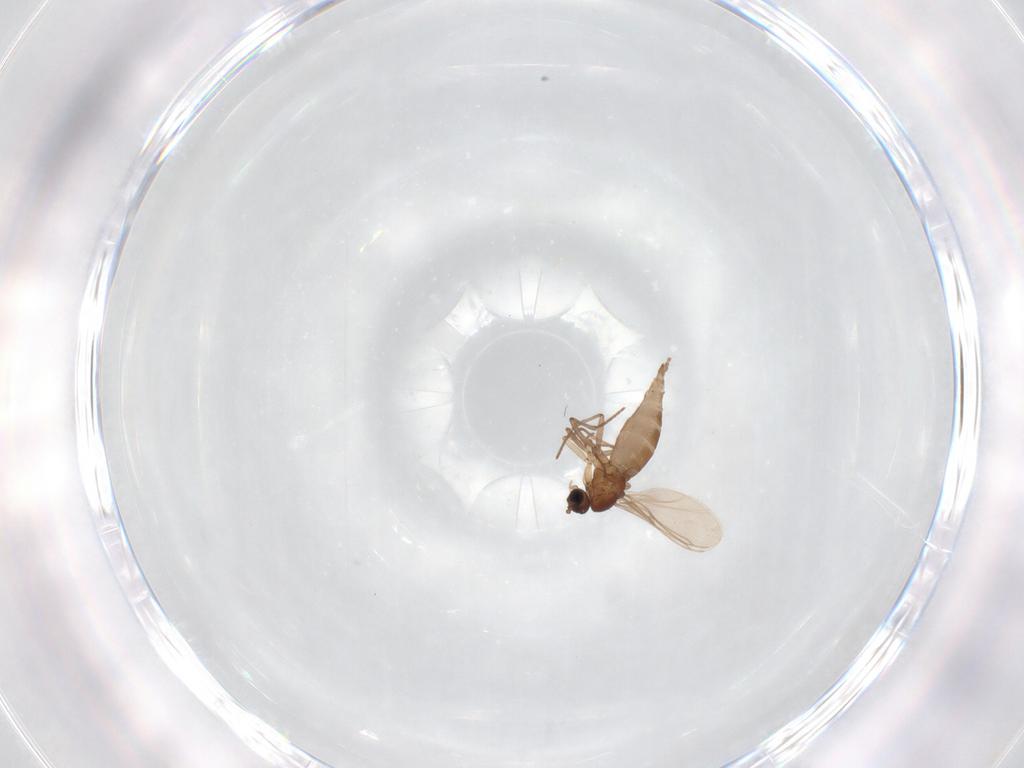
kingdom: Animalia
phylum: Arthropoda
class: Insecta
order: Diptera
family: Sciaridae
